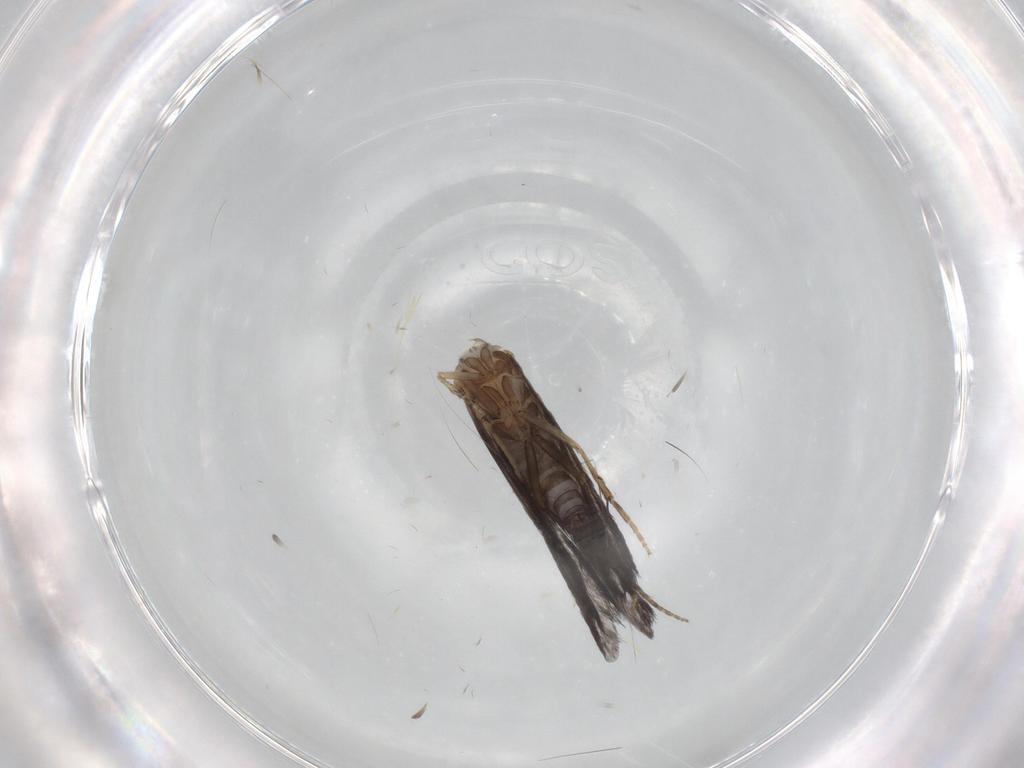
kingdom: Animalia
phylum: Arthropoda
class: Insecta
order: Trichoptera
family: Glossosomatidae
